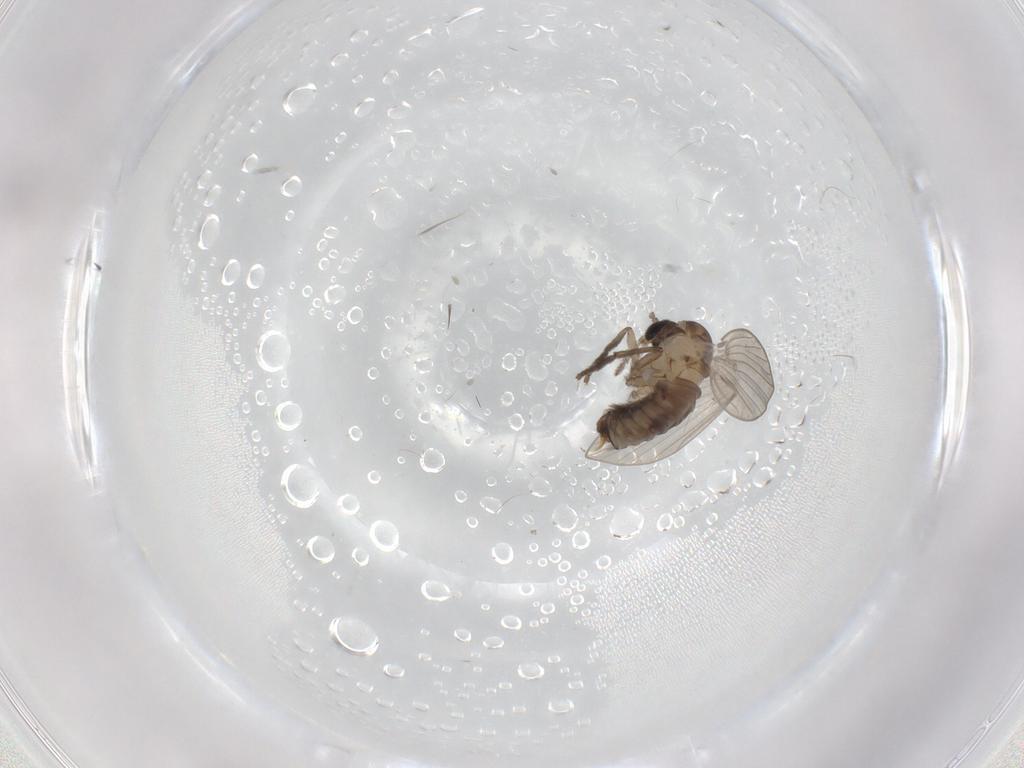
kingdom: Animalia
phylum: Arthropoda
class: Insecta
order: Diptera
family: Psychodidae
